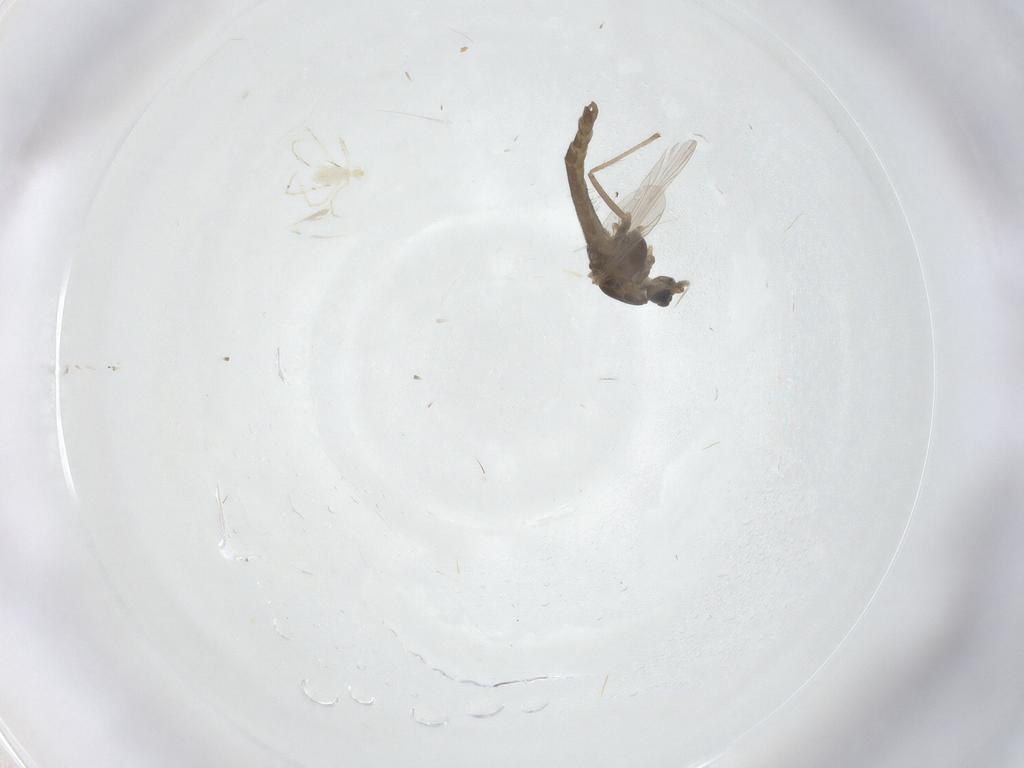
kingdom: Animalia
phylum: Arthropoda
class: Insecta
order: Diptera
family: Chironomidae
